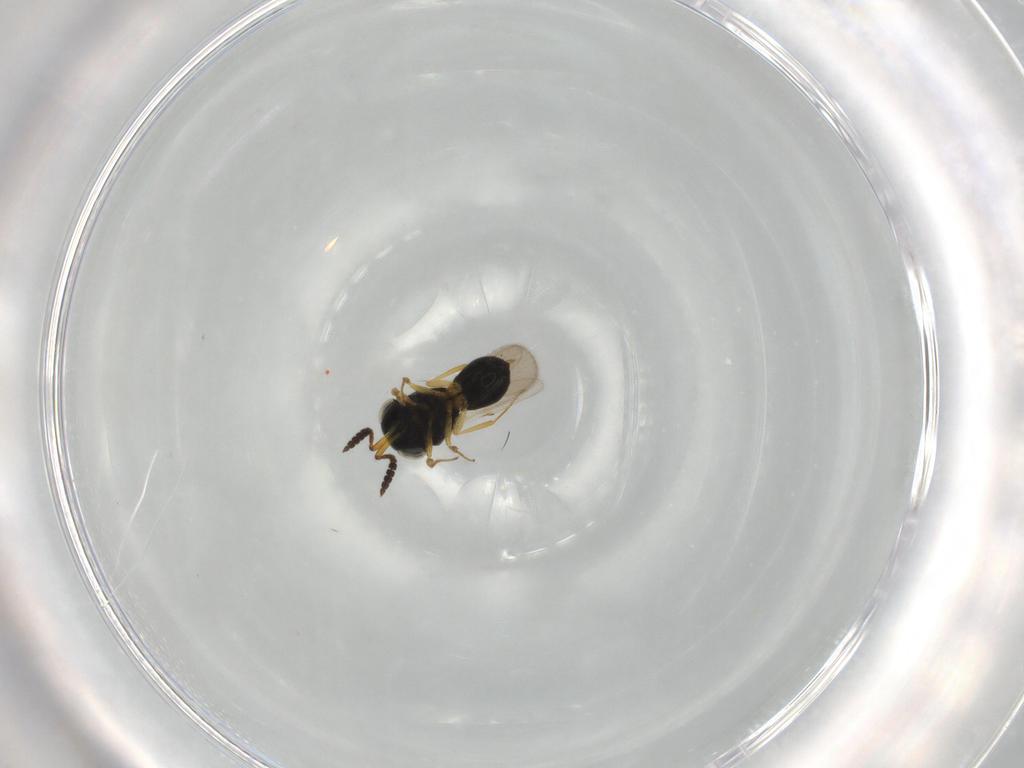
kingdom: Animalia
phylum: Arthropoda
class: Insecta
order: Hymenoptera
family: Scelionidae
